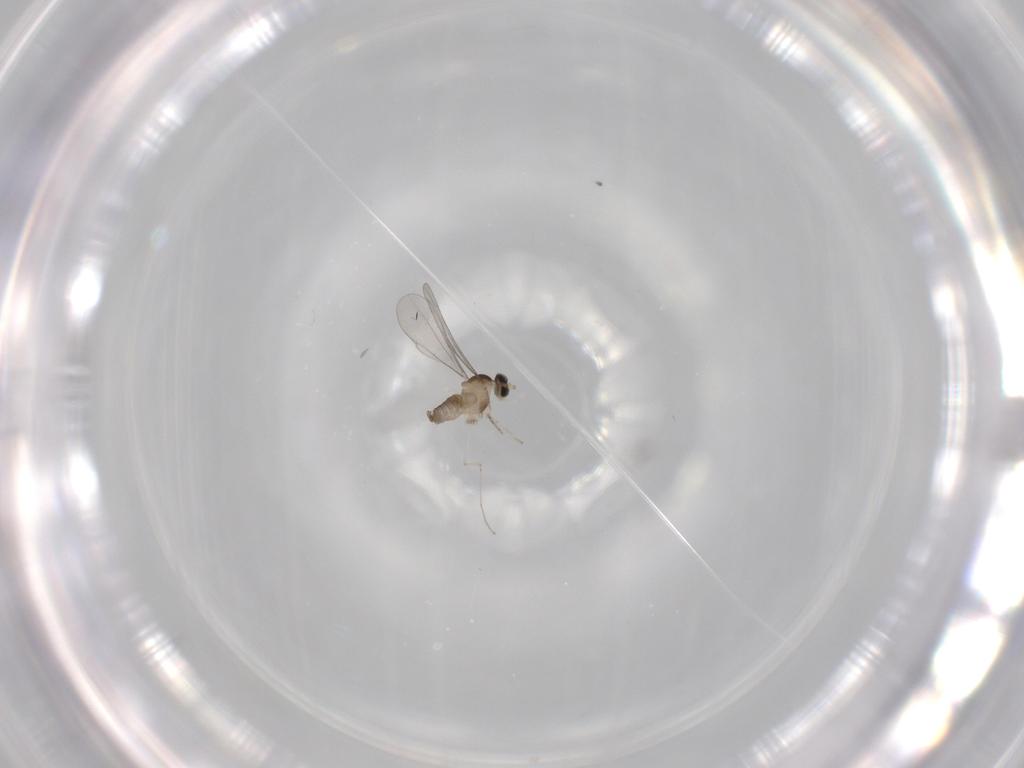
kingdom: Animalia
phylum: Arthropoda
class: Insecta
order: Diptera
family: Cecidomyiidae
